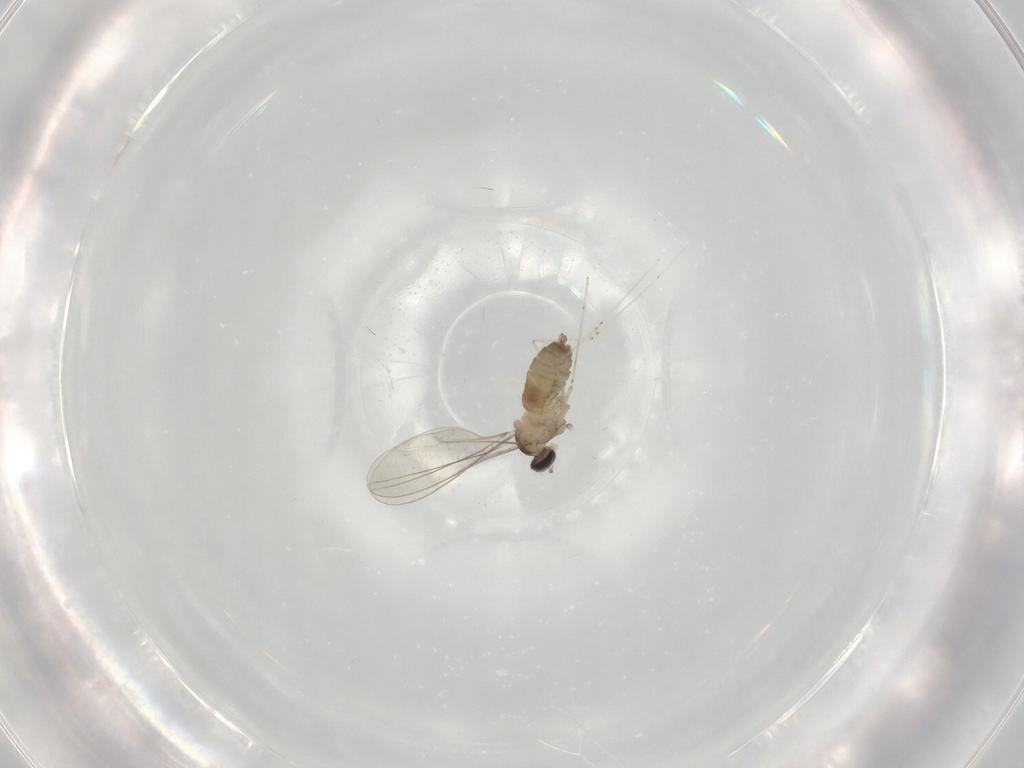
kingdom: Animalia
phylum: Arthropoda
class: Insecta
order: Diptera
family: Cecidomyiidae
